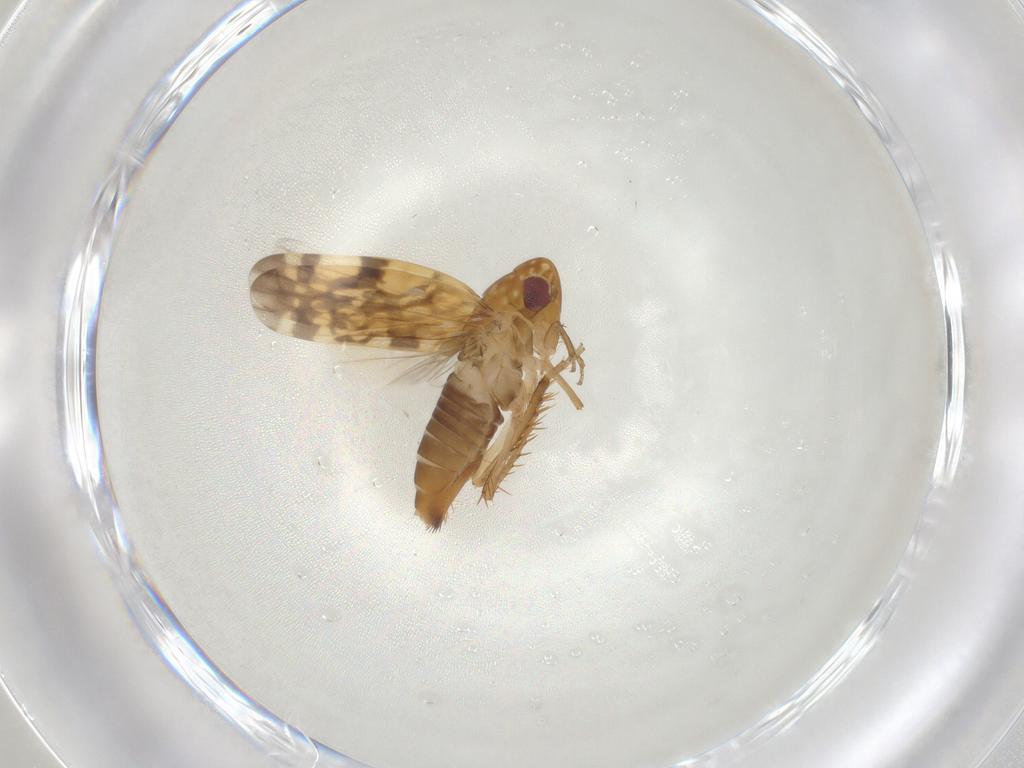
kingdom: Animalia
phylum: Arthropoda
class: Insecta
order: Hemiptera
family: Cicadellidae
